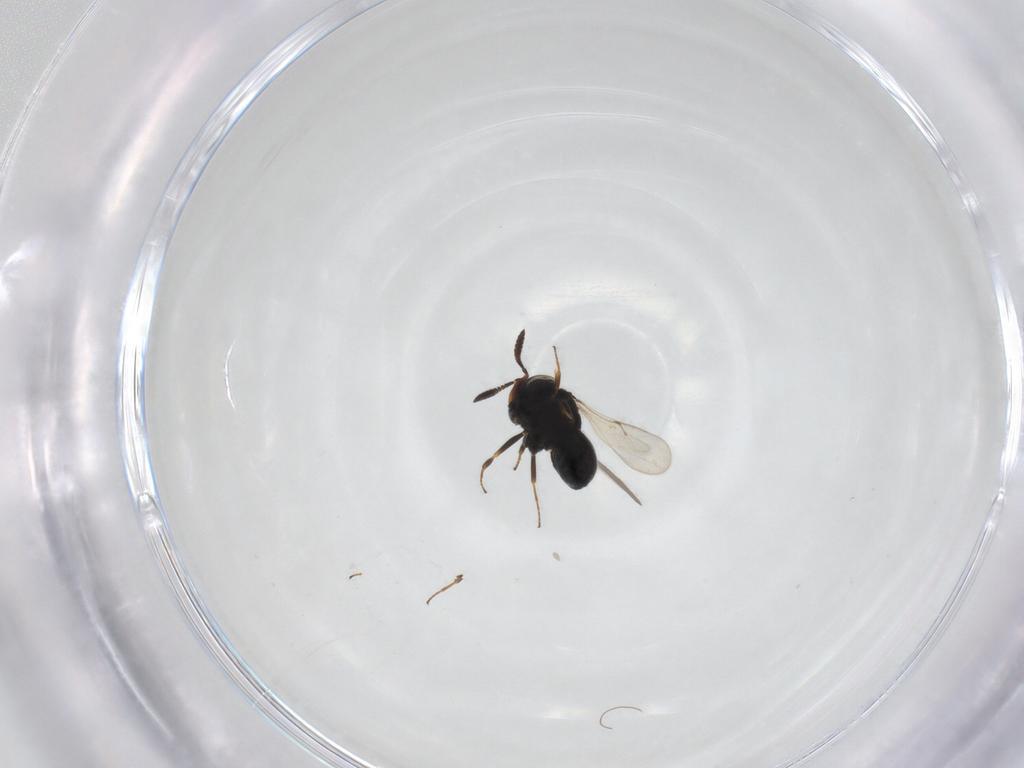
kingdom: Animalia
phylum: Arthropoda
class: Insecta
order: Hymenoptera
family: Scelionidae
